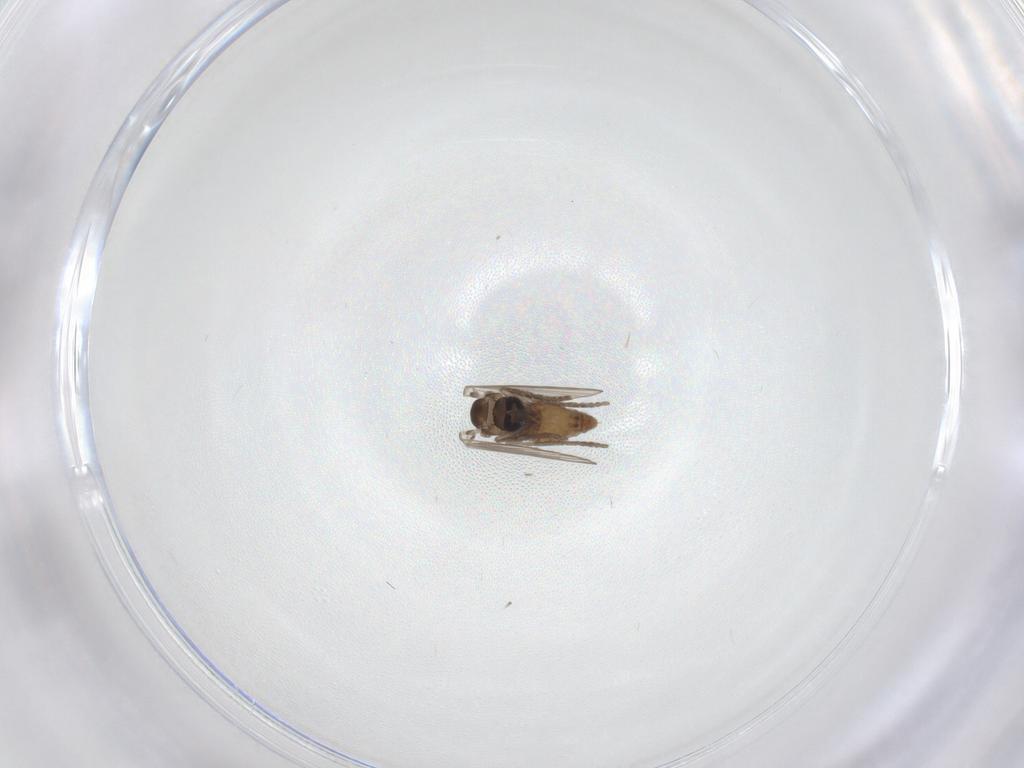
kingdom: Animalia
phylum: Arthropoda
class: Insecta
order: Diptera
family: Psychodidae
